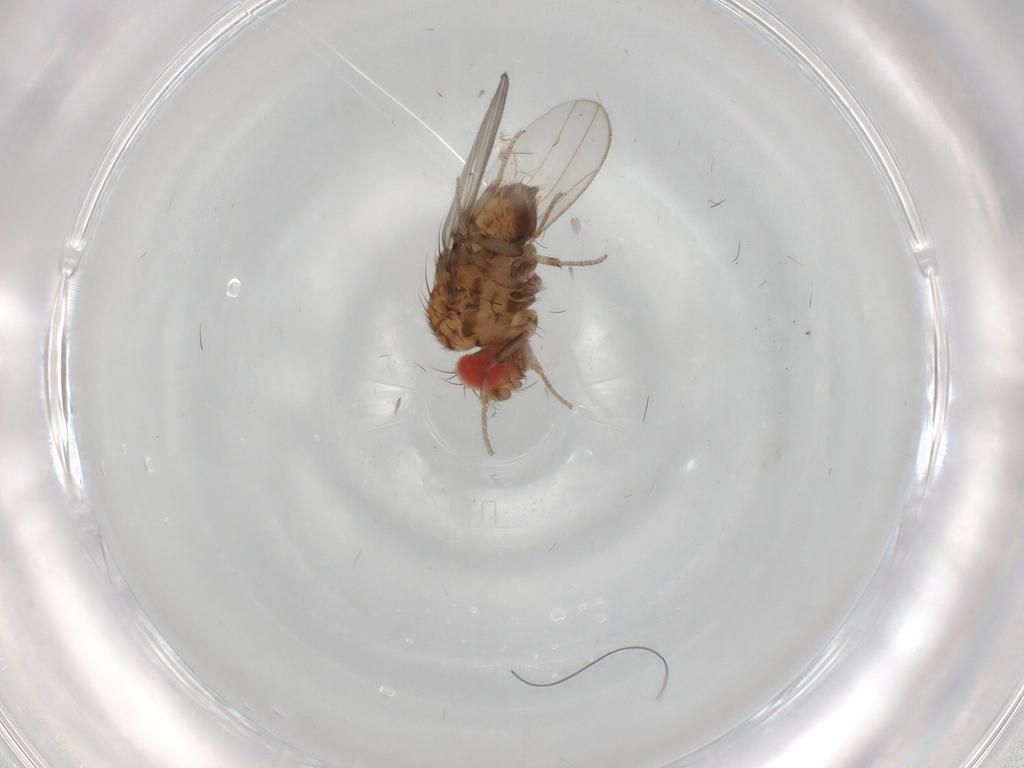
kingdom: Animalia
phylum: Arthropoda
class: Insecta
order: Diptera
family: Drosophilidae
